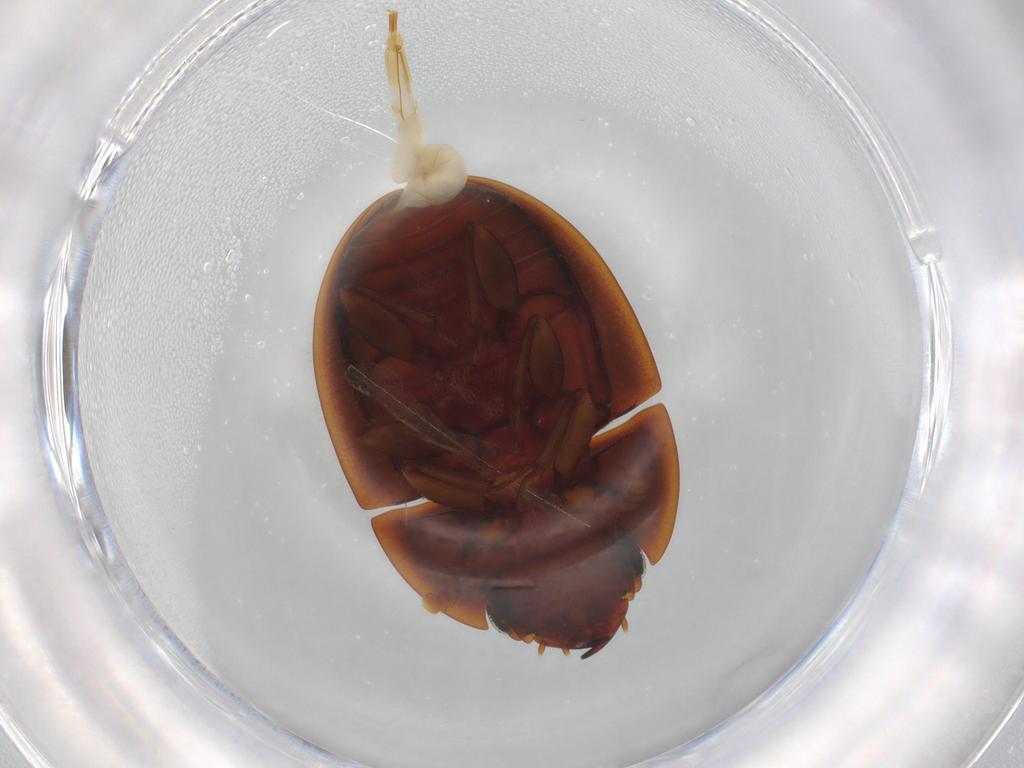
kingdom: Animalia
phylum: Arthropoda
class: Insecta
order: Coleoptera
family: Nitidulidae
